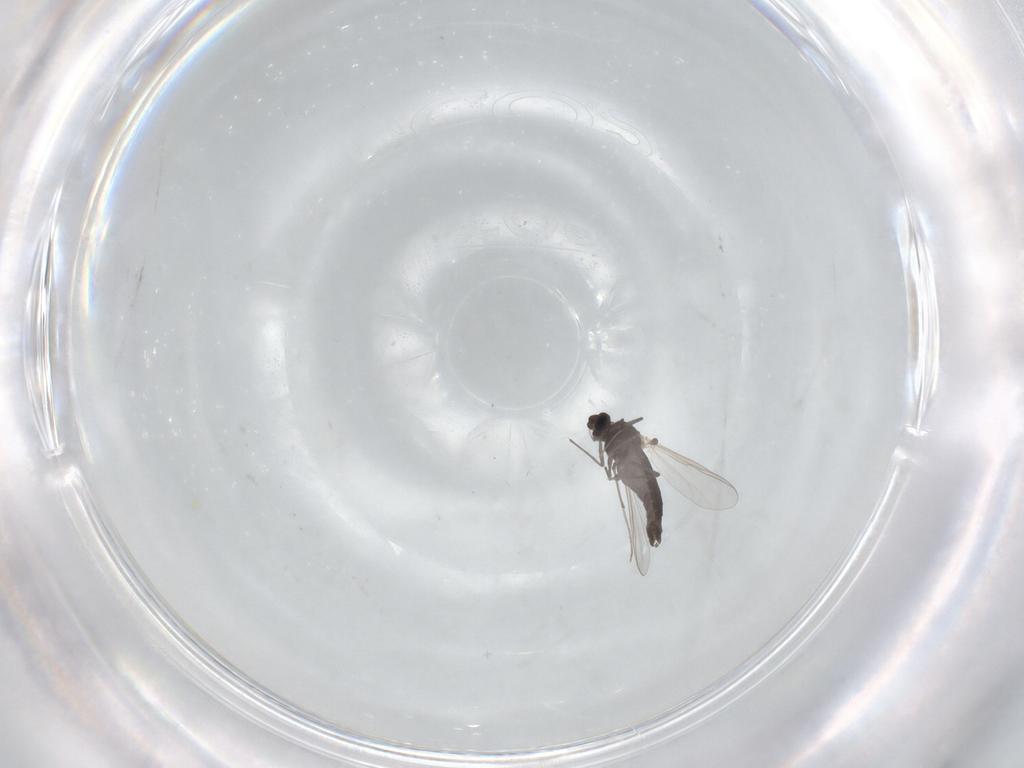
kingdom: Animalia
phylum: Arthropoda
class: Insecta
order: Diptera
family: Chironomidae
